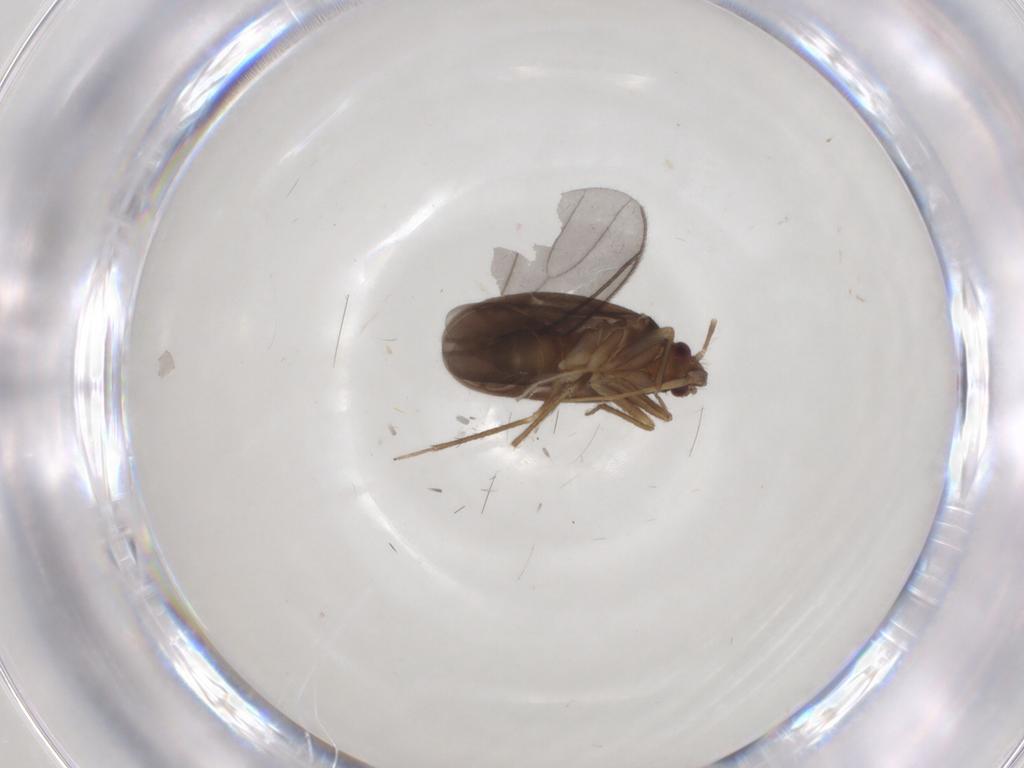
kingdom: Animalia
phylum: Arthropoda
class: Insecta
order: Hemiptera
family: Ceratocombidae
